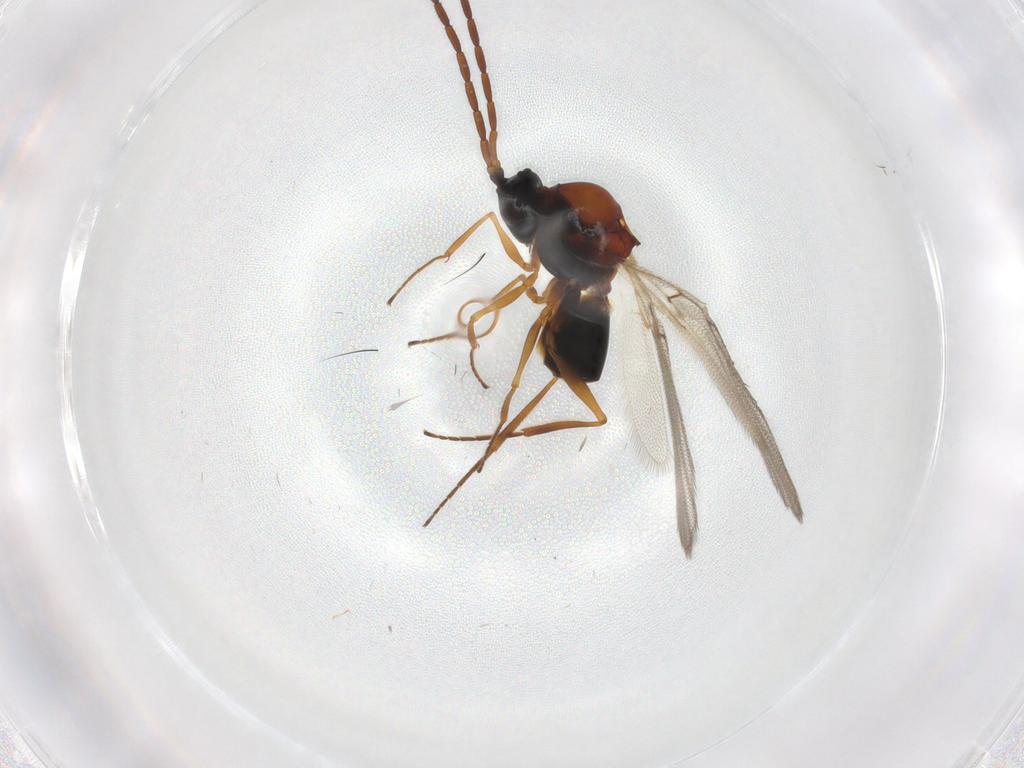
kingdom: Animalia
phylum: Arthropoda
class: Insecta
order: Hymenoptera
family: Figitidae
